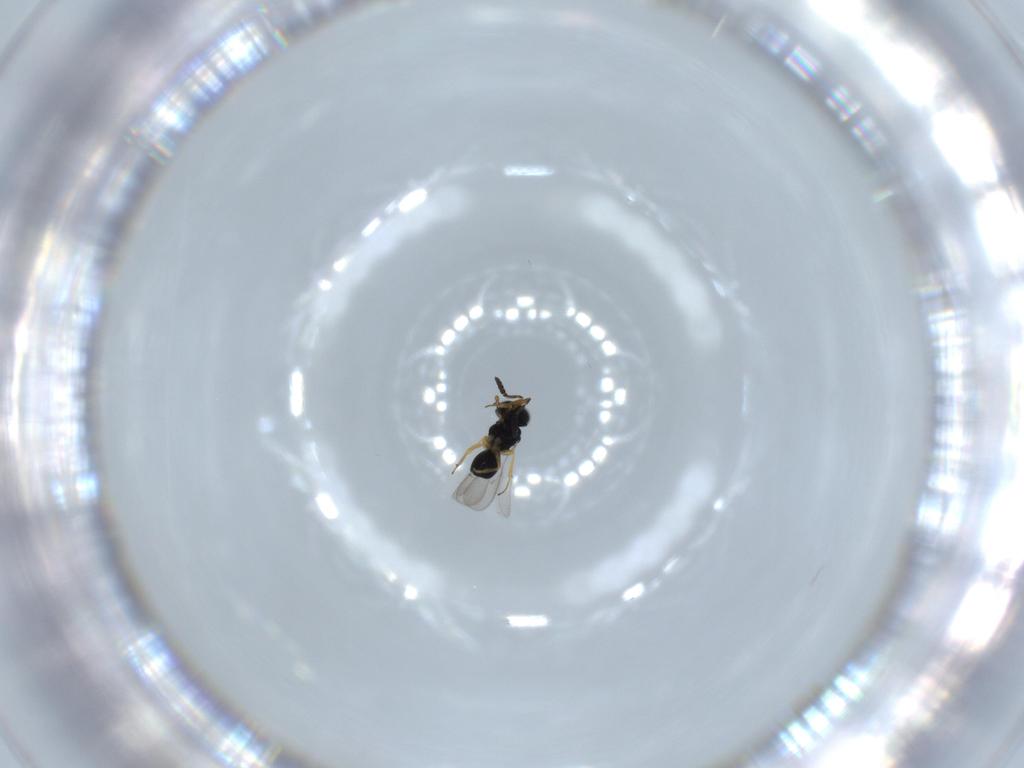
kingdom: Animalia
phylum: Arthropoda
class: Insecta
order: Hymenoptera
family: Scelionidae
